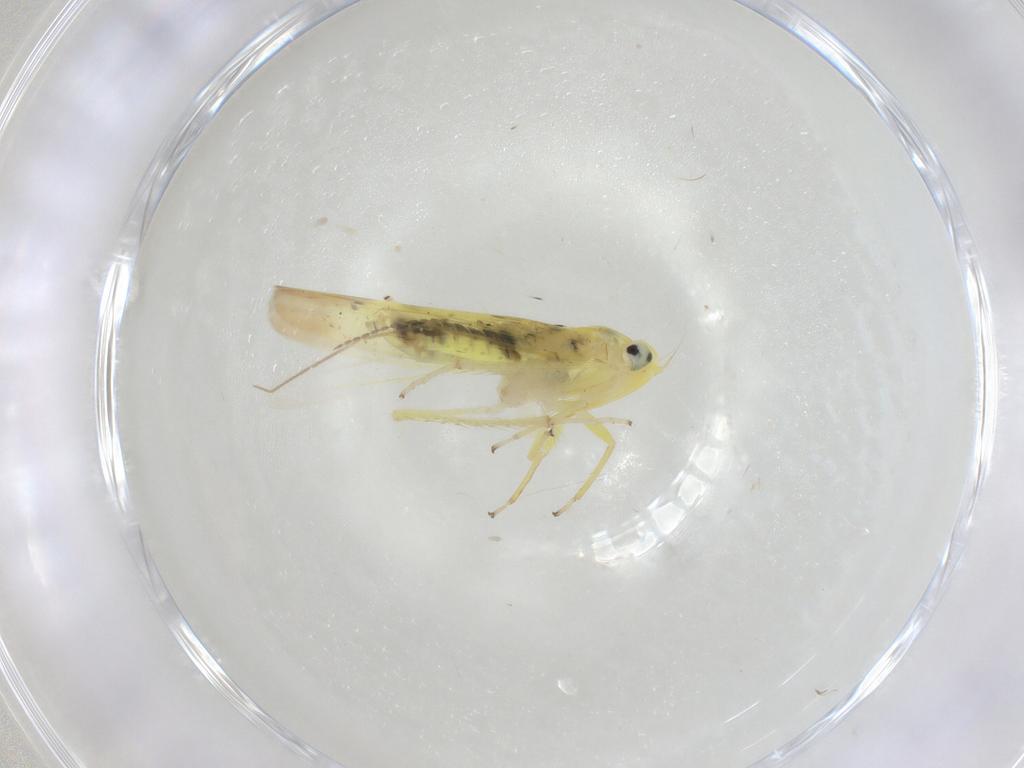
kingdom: Animalia
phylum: Arthropoda
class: Insecta
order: Hemiptera
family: Cicadellidae
